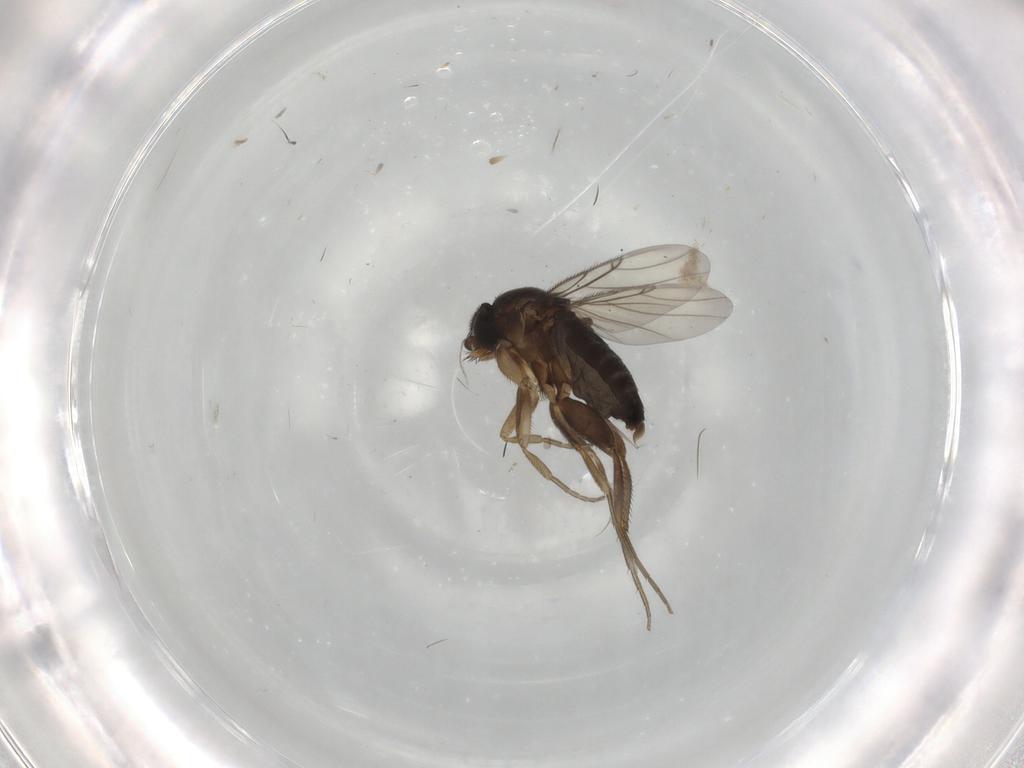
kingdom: Animalia
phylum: Arthropoda
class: Insecta
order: Diptera
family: Phoridae
